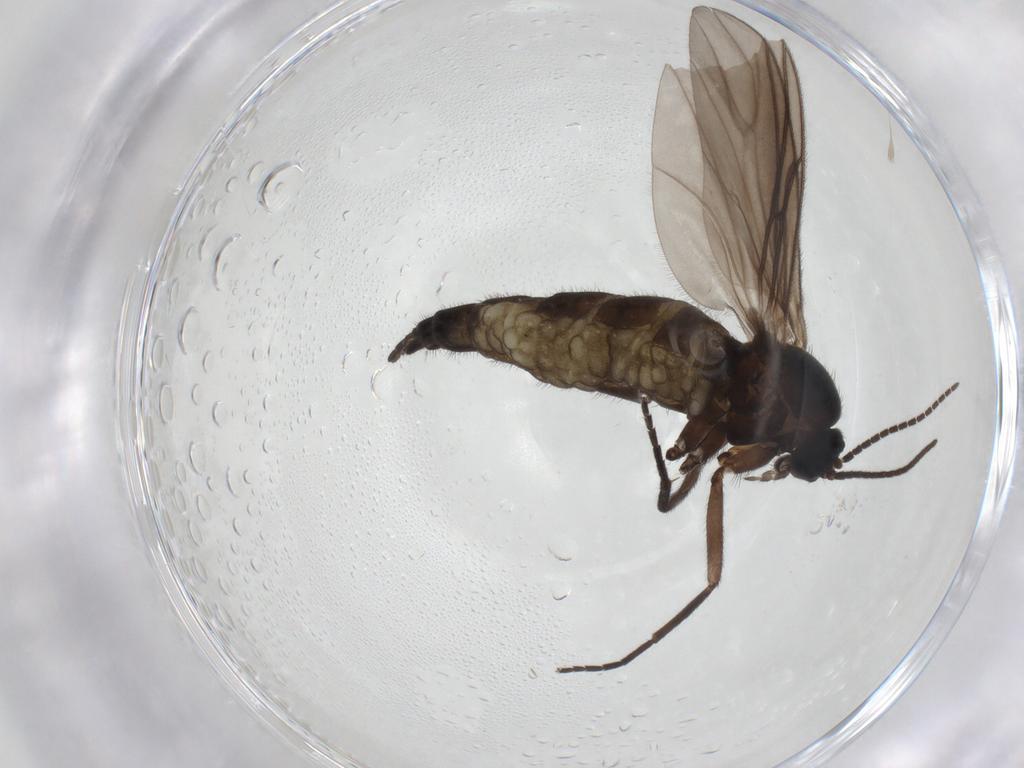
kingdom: Animalia
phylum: Arthropoda
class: Insecta
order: Diptera
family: Sciaridae
